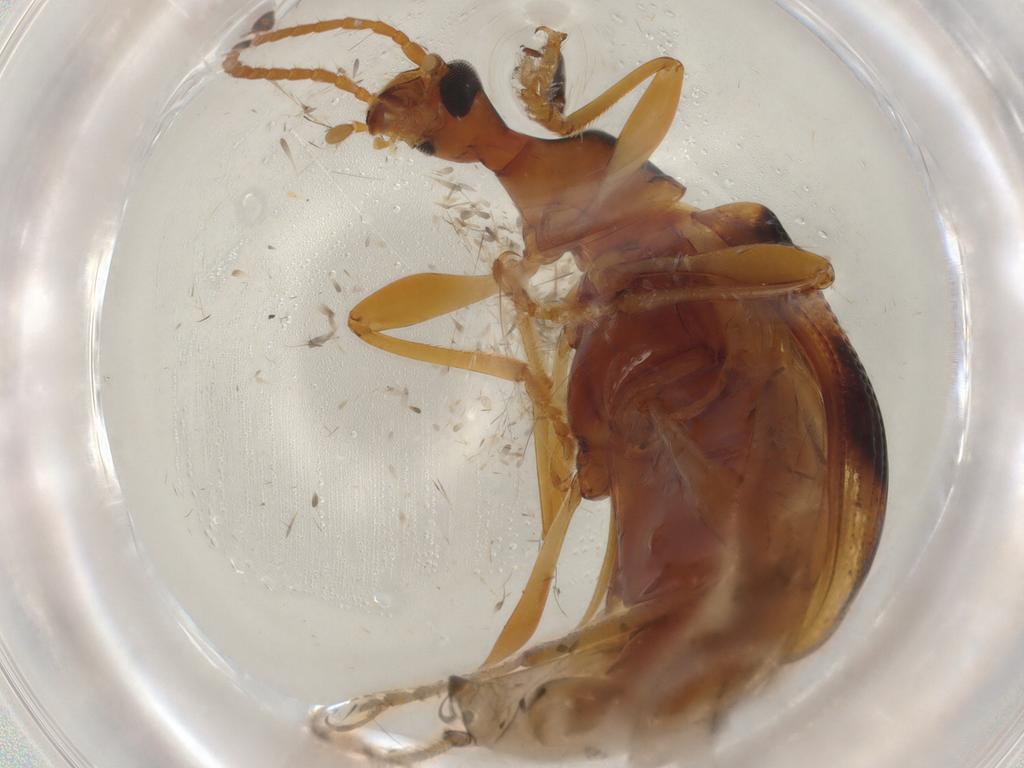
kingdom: Animalia
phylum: Arthropoda
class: Insecta
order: Coleoptera
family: Tenebrionidae
